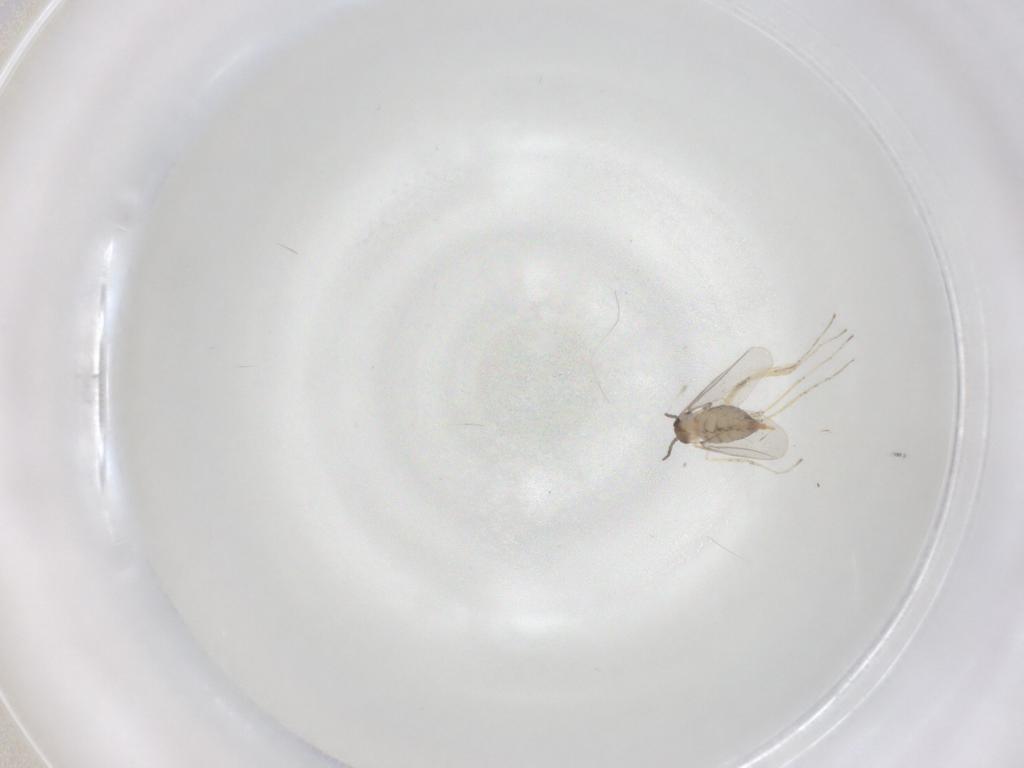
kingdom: Animalia
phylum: Arthropoda
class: Insecta
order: Diptera
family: Cecidomyiidae
